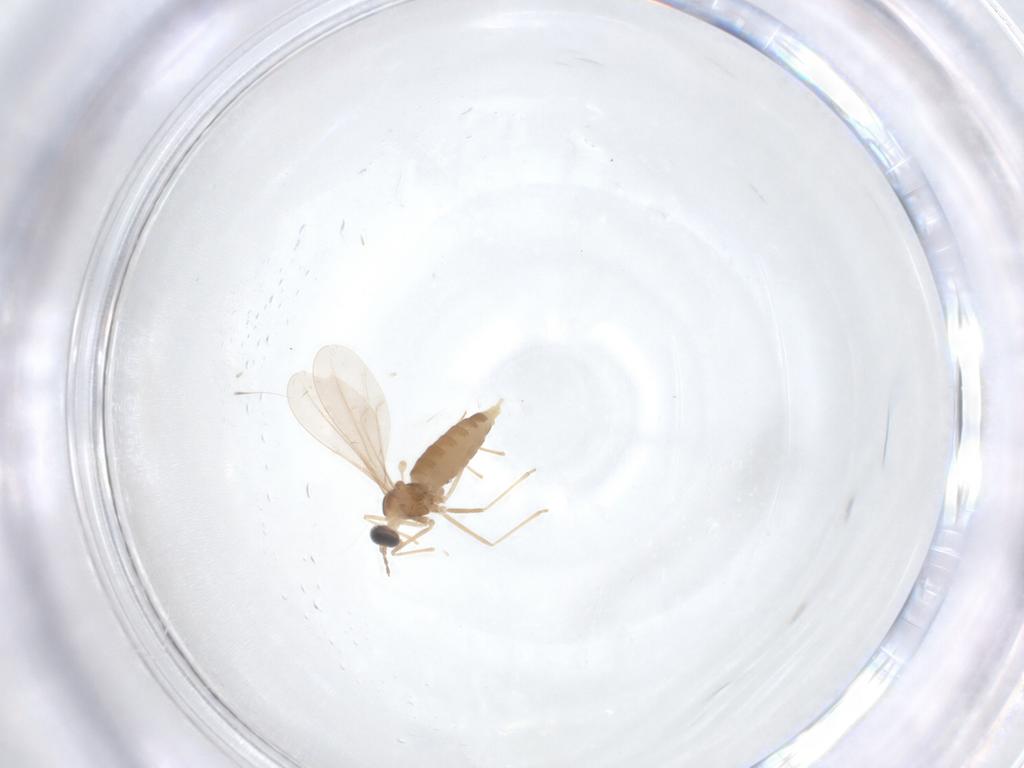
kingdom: Animalia
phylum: Arthropoda
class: Insecta
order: Diptera
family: Cecidomyiidae
